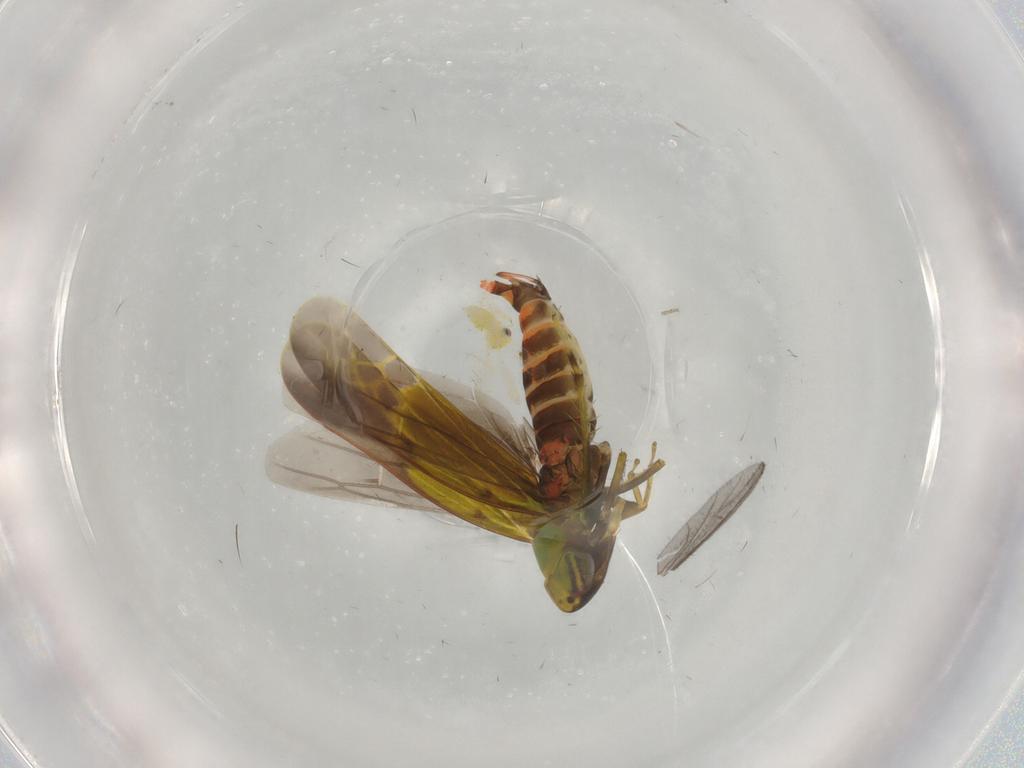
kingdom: Animalia
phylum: Arthropoda
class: Insecta
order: Hemiptera
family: Cicadellidae
